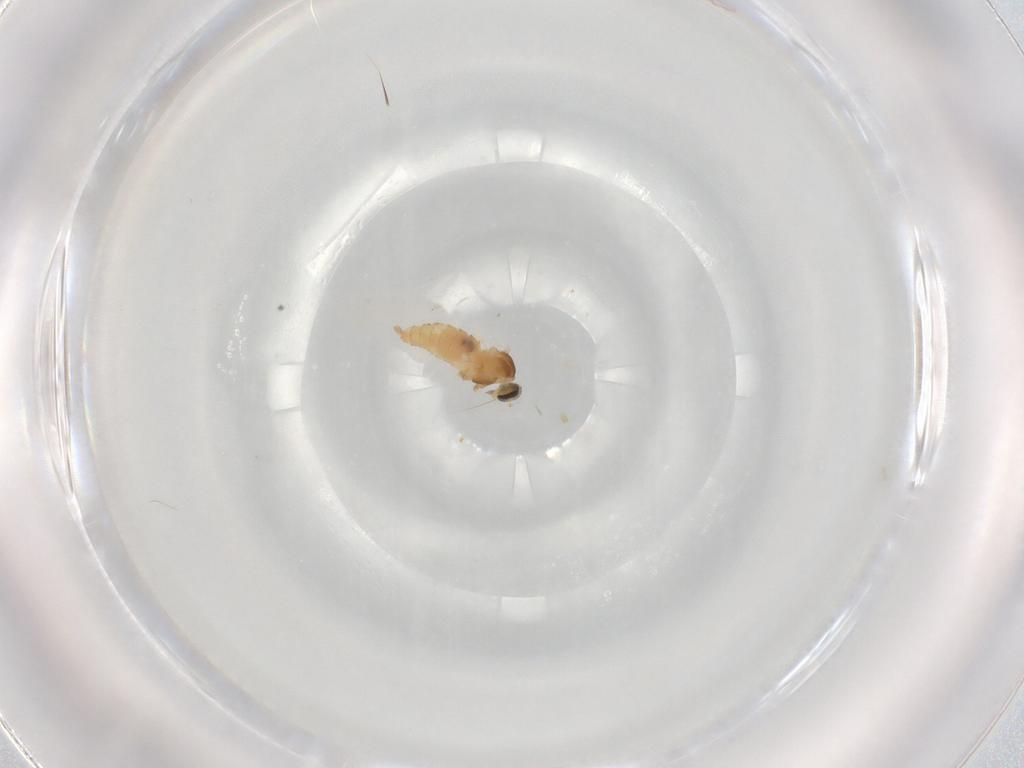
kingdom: Animalia
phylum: Arthropoda
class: Insecta
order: Diptera
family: Cecidomyiidae
